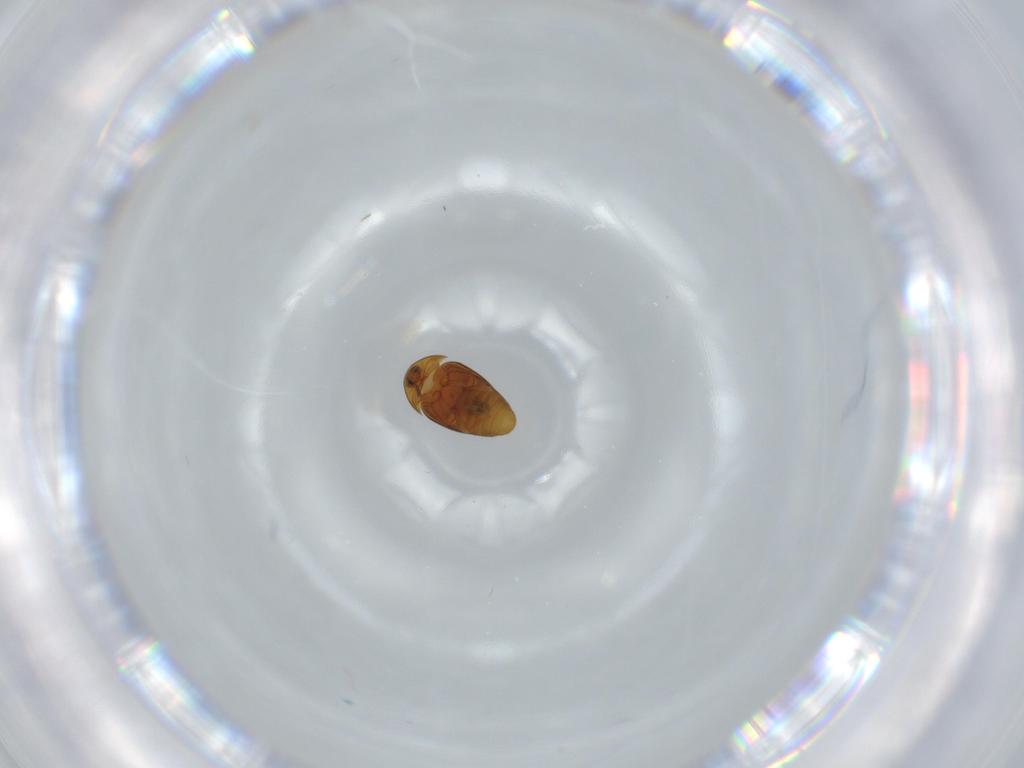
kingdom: Animalia
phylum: Arthropoda
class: Insecta
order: Coleoptera
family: Corylophidae
